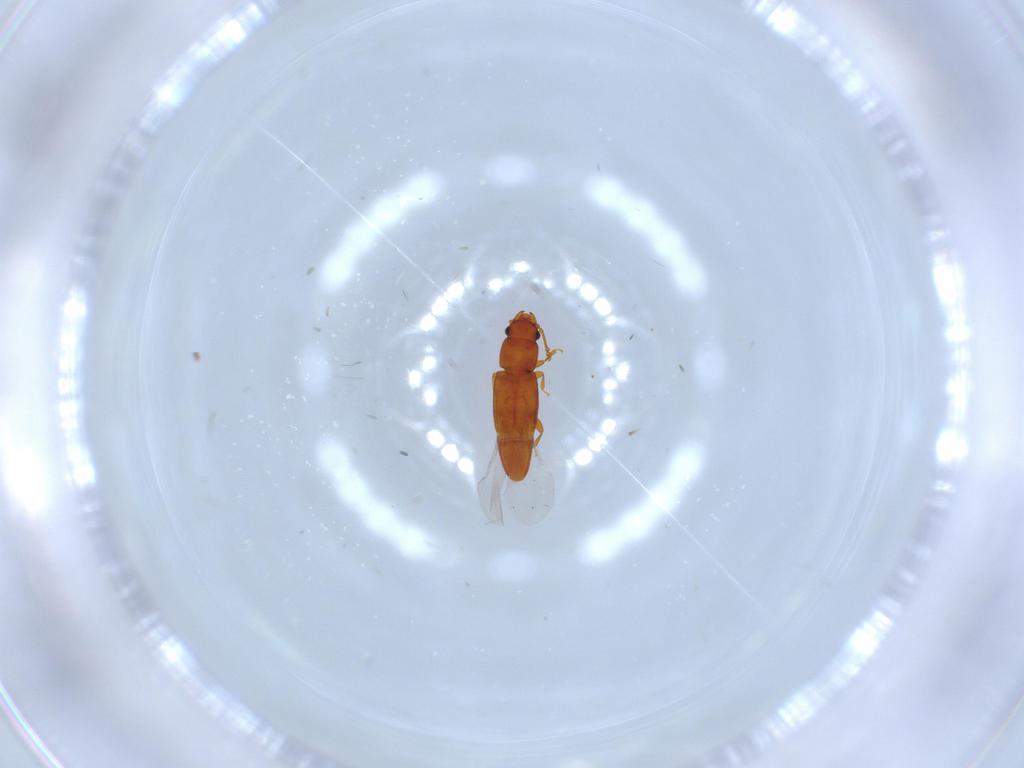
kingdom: Animalia
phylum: Arthropoda
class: Insecta
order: Coleoptera
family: Smicripidae
